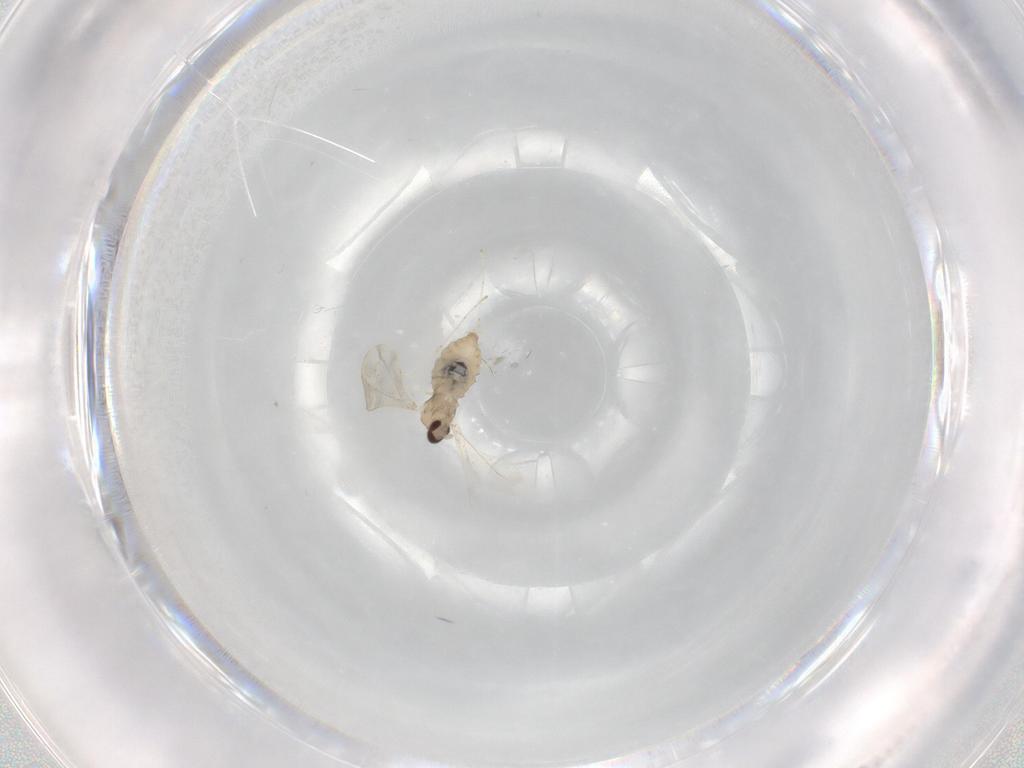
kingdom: Animalia
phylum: Arthropoda
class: Insecta
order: Diptera
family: Cecidomyiidae
